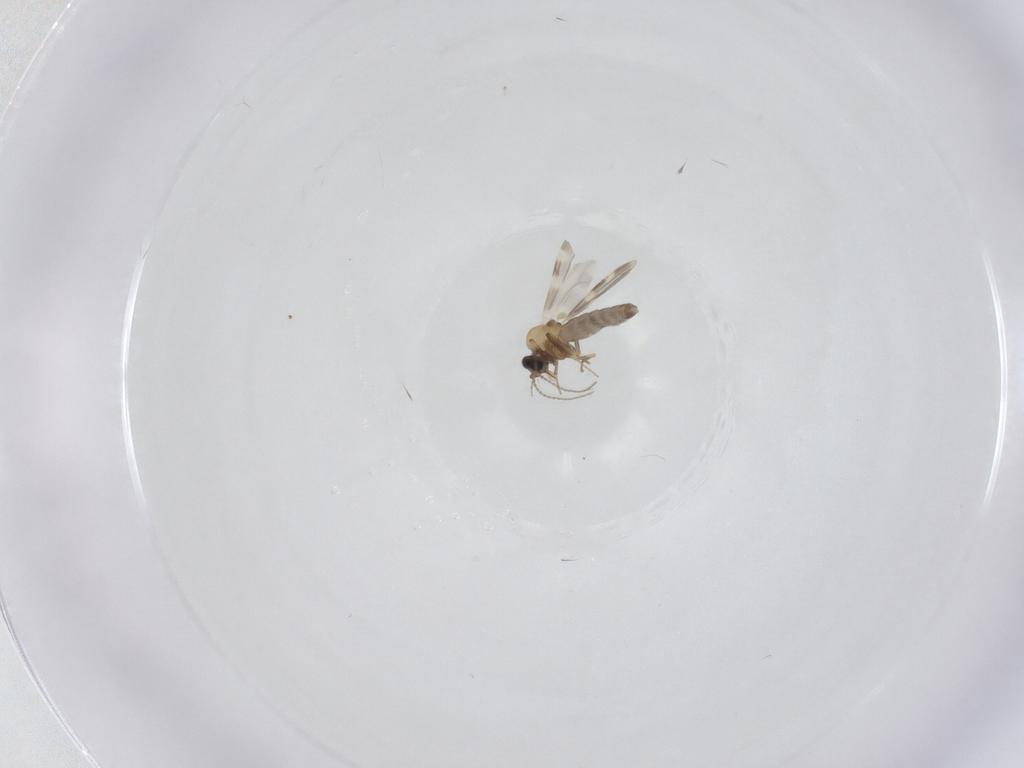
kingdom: Animalia
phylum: Arthropoda
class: Insecta
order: Diptera
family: Ceratopogonidae
